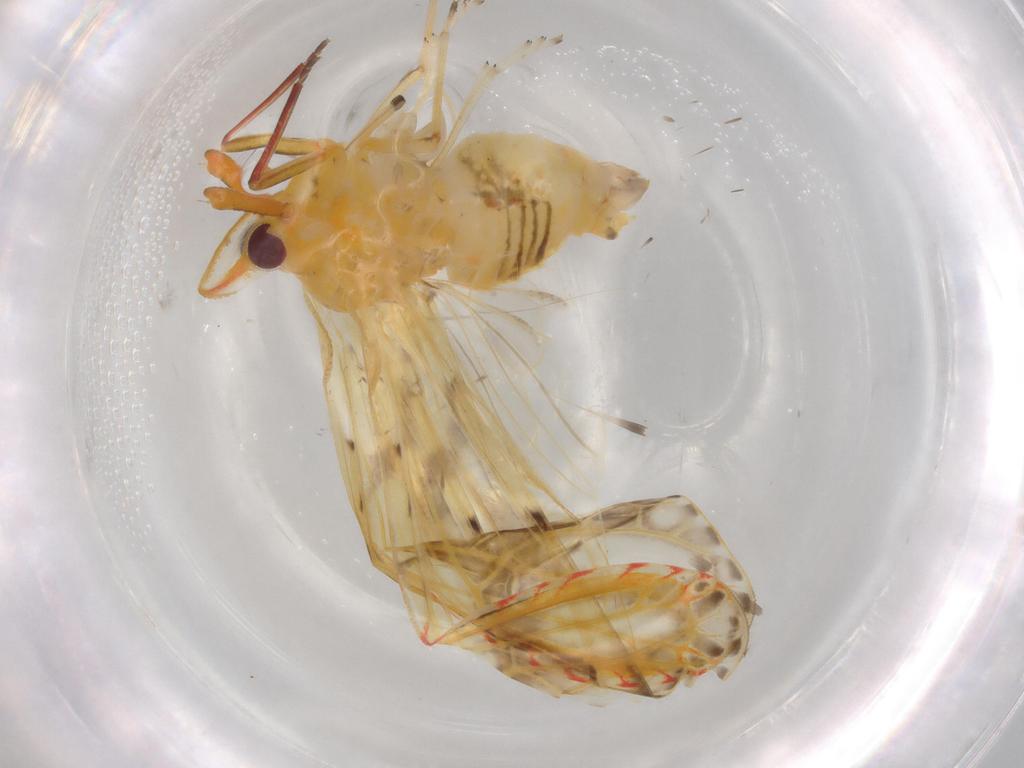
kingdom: Animalia
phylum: Arthropoda
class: Insecta
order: Hemiptera
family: Derbidae
